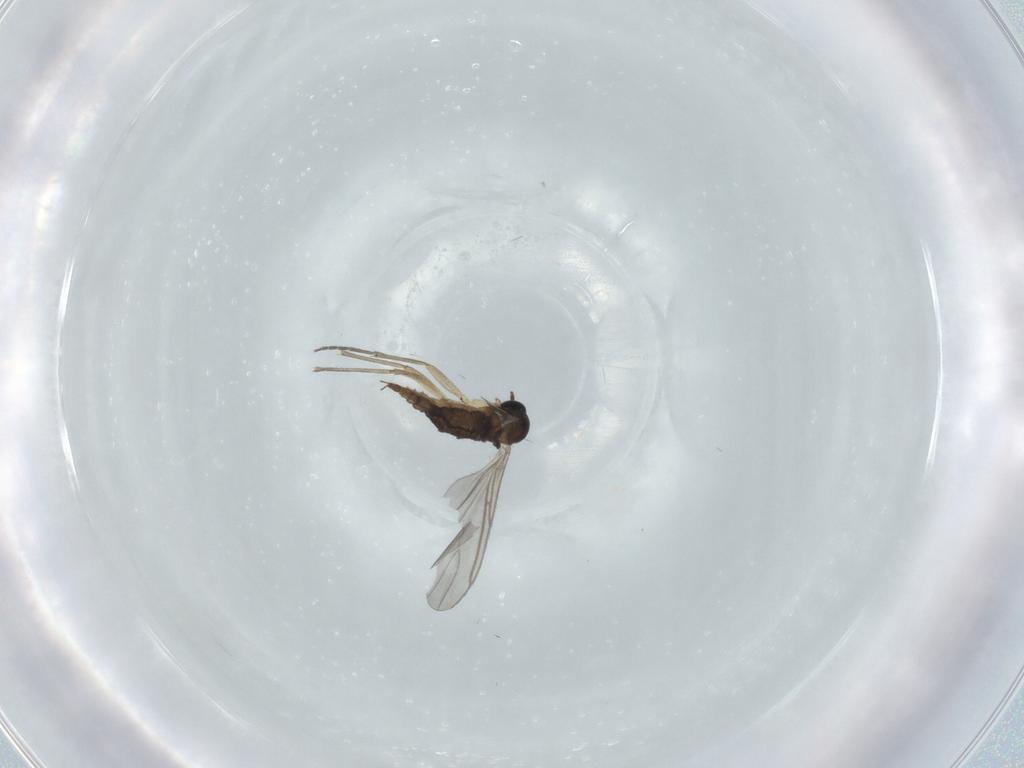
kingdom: Animalia
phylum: Arthropoda
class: Insecta
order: Diptera
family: Sciaridae
